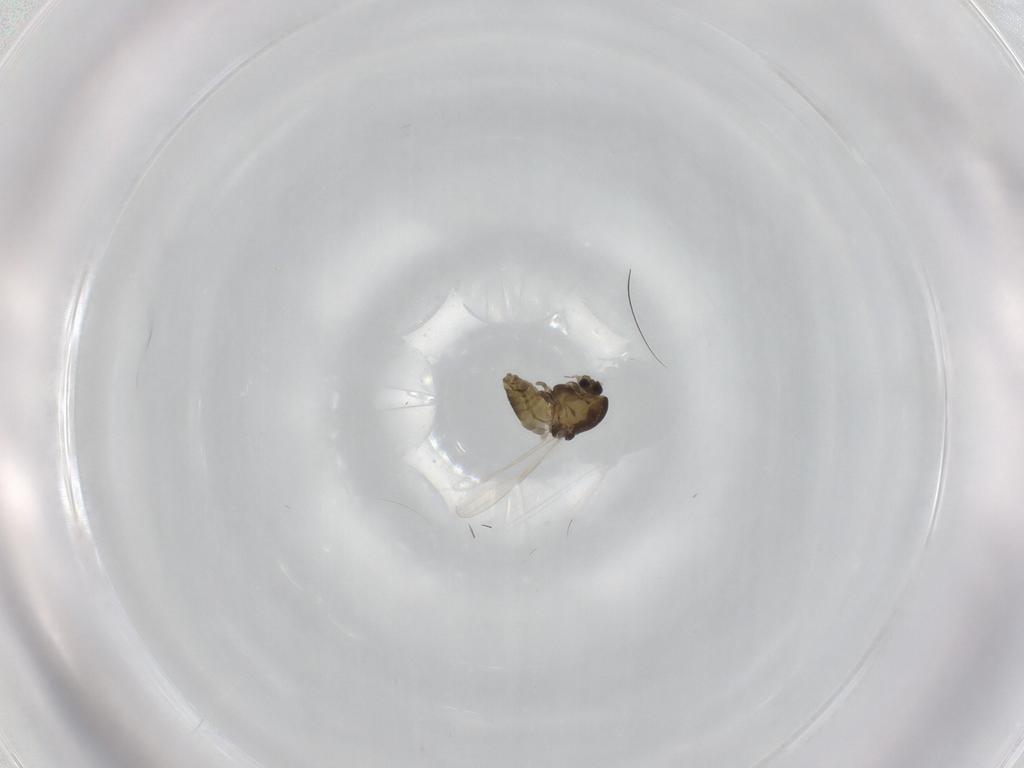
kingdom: Animalia
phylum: Arthropoda
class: Insecta
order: Diptera
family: Chironomidae
